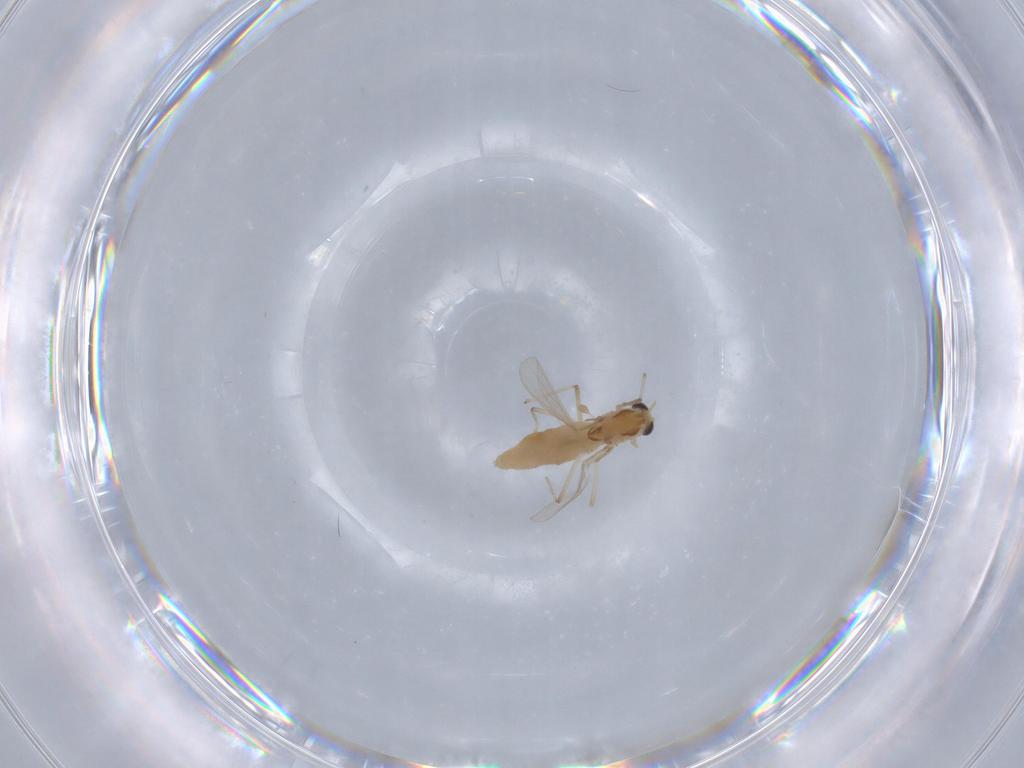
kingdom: Animalia
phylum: Arthropoda
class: Insecta
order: Diptera
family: Chironomidae
